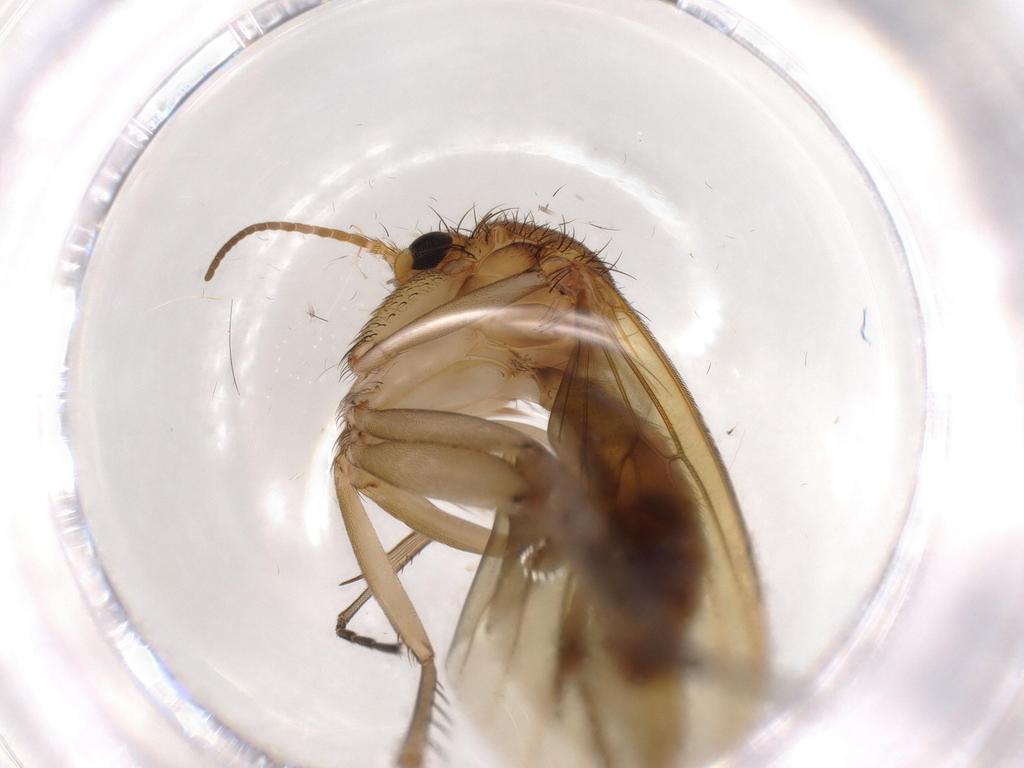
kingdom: Animalia
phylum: Arthropoda
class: Insecta
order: Diptera
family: Mycetophilidae
